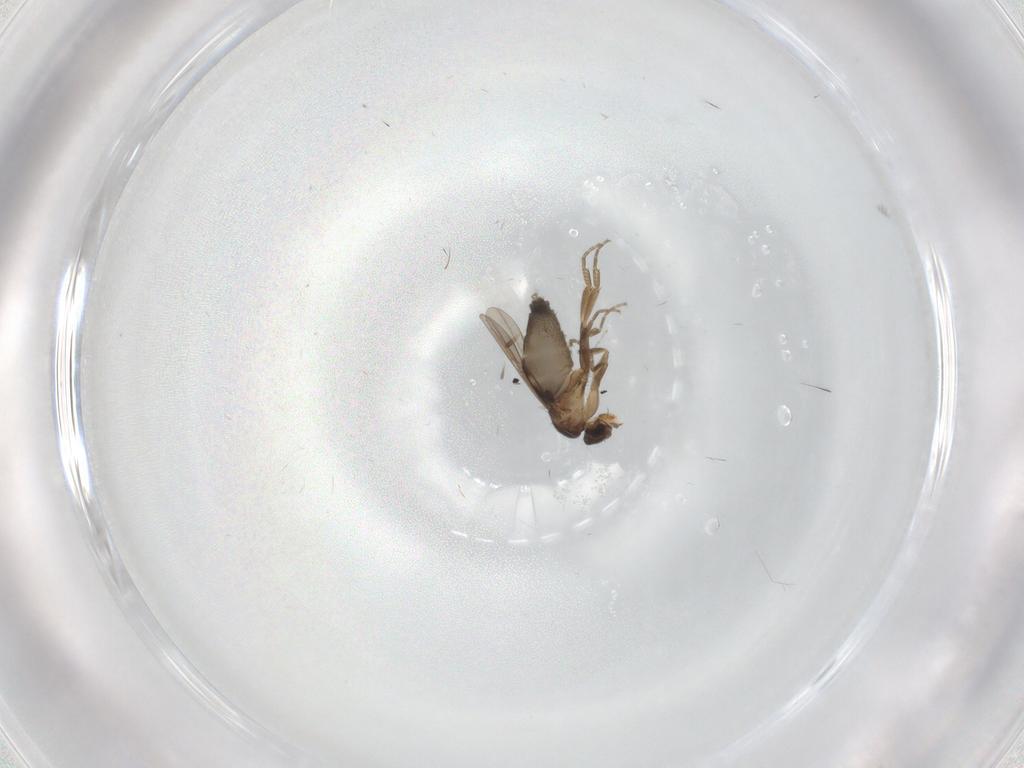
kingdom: Animalia
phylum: Arthropoda
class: Insecta
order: Diptera
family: Phoridae
